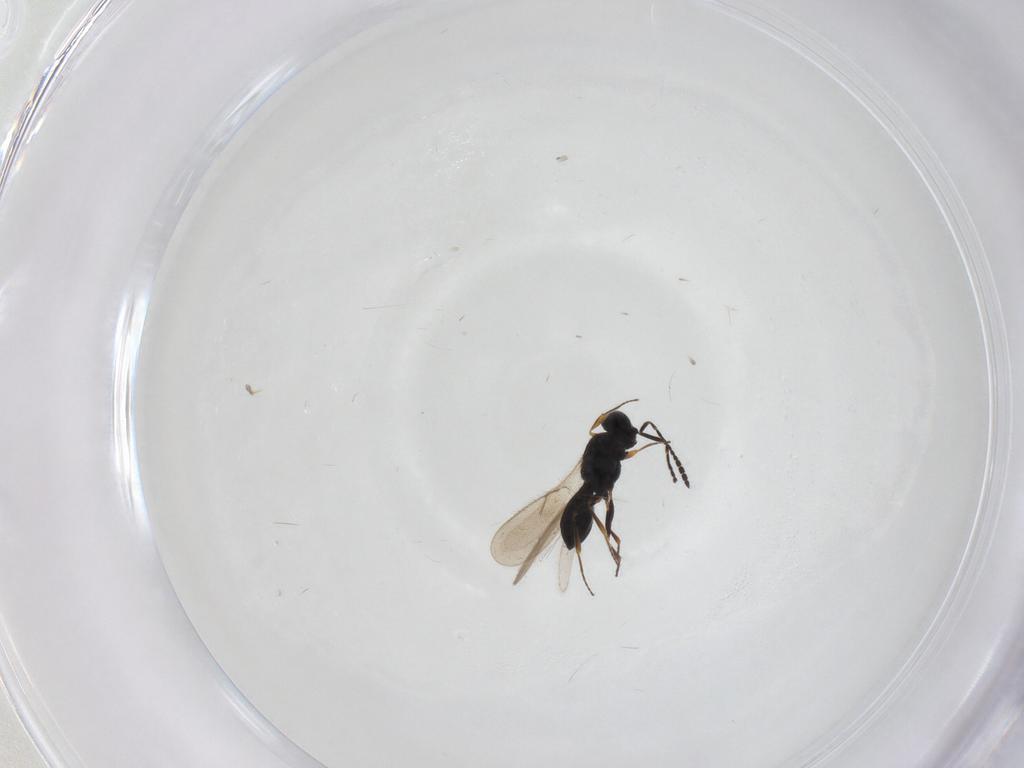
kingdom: Animalia
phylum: Arthropoda
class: Insecta
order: Hymenoptera
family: Scelionidae
